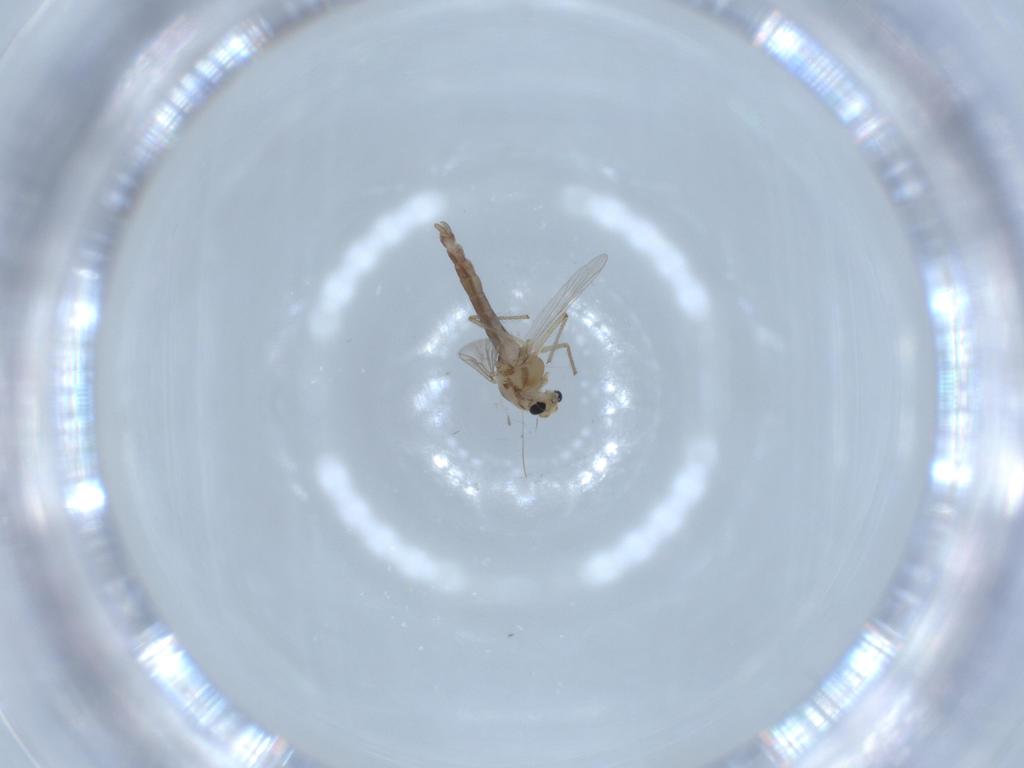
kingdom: Animalia
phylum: Arthropoda
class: Insecta
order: Diptera
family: Chironomidae
